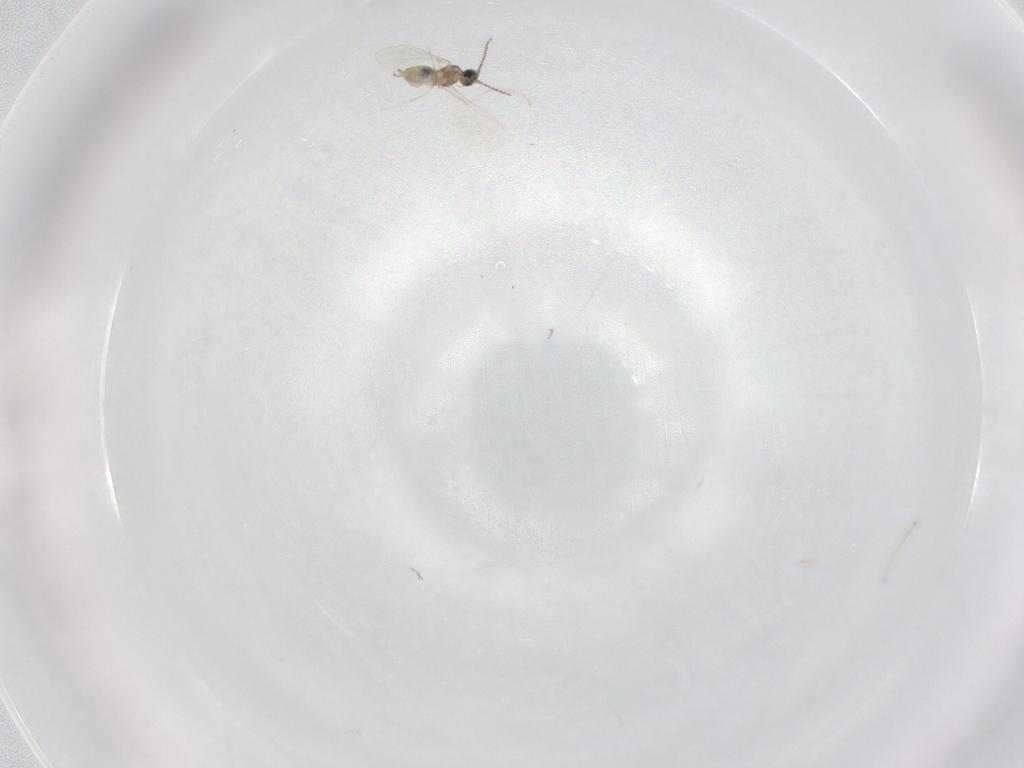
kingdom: Animalia
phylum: Arthropoda
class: Insecta
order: Diptera
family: Cecidomyiidae
